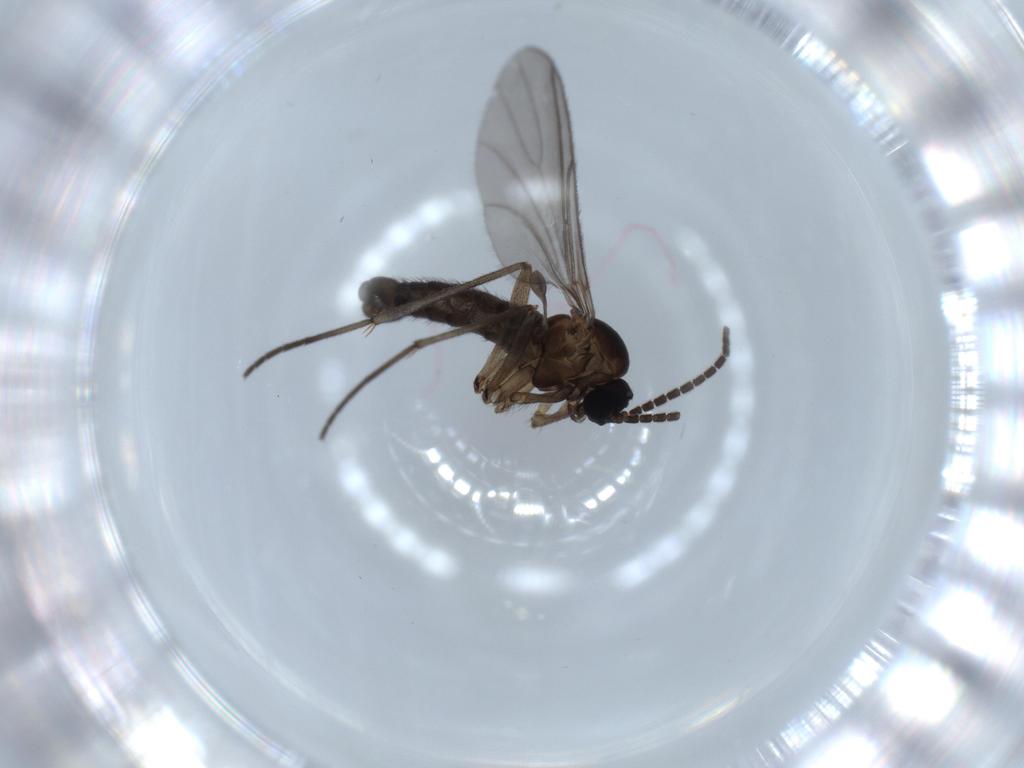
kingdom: Animalia
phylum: Arthropoda
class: Insecta
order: Diptera
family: Sciaridae
